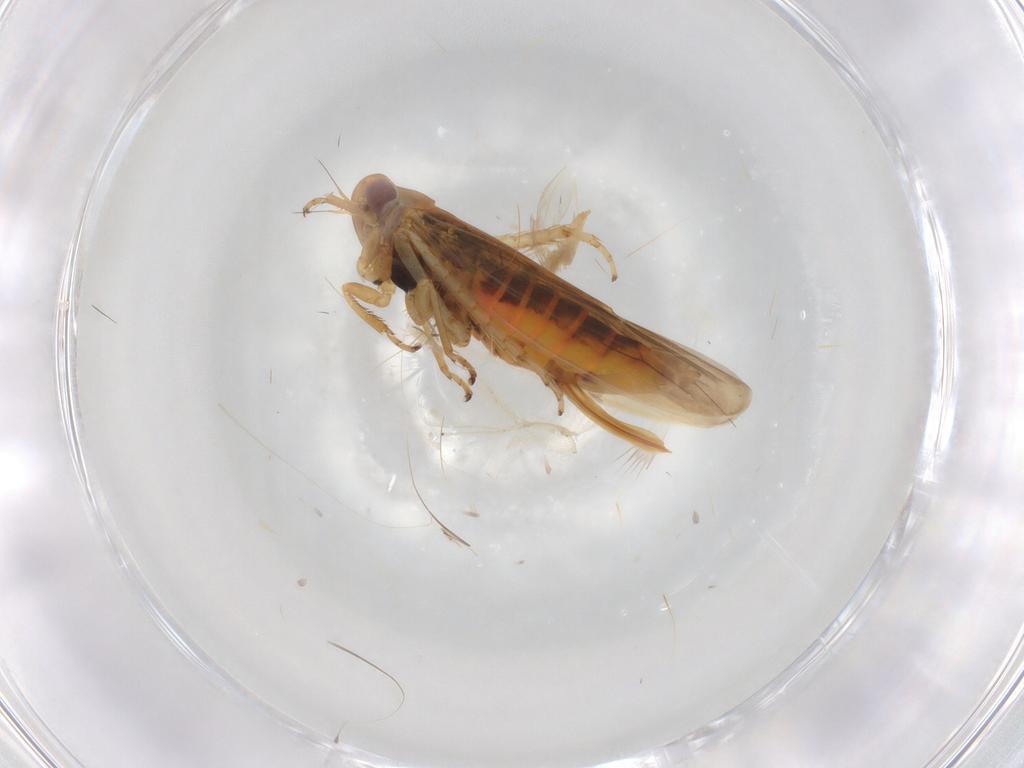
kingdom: Animalia
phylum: Arthropoda
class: Insecta
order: Hemiptera
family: Cicadellidae
